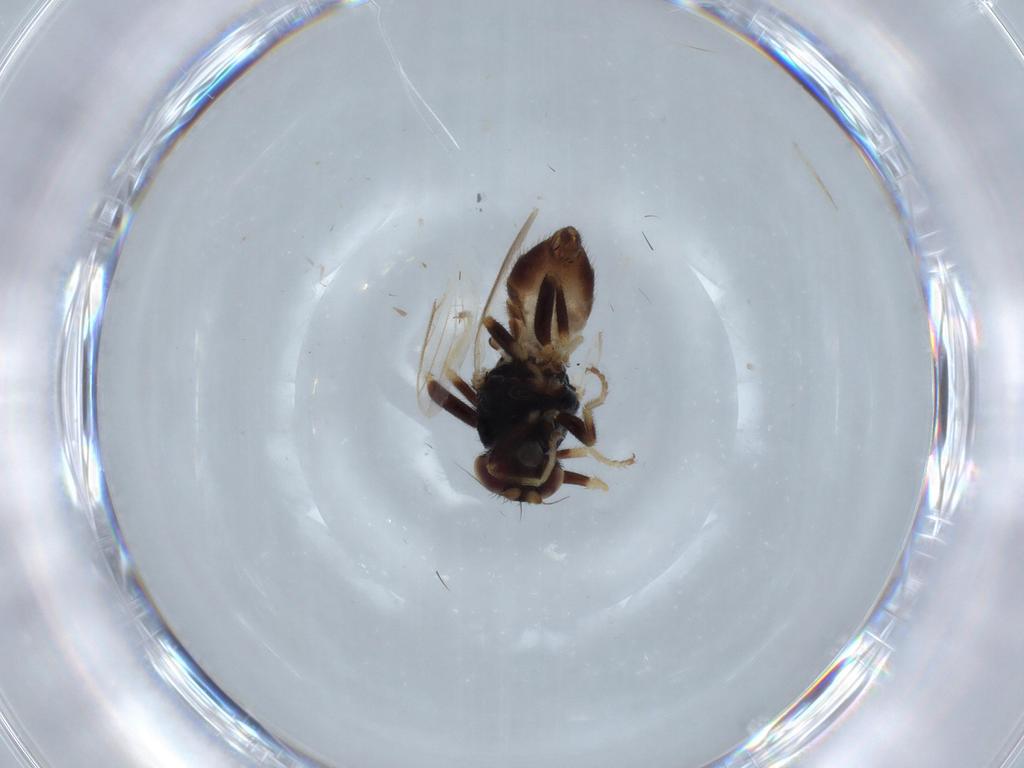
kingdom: Animalia
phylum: Arthropoda
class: Insecta
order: Diptera
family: Chloropidae
